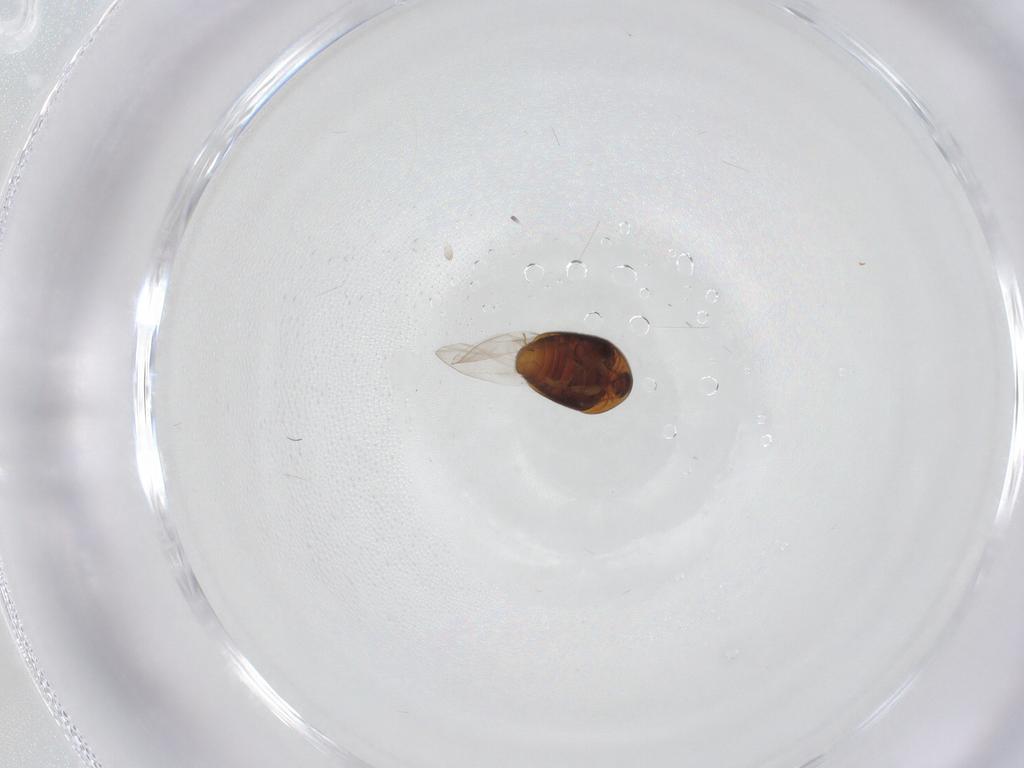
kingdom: Animalia
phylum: Arthropoda
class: Insecta
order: Coleoptera
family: Corylophidae
